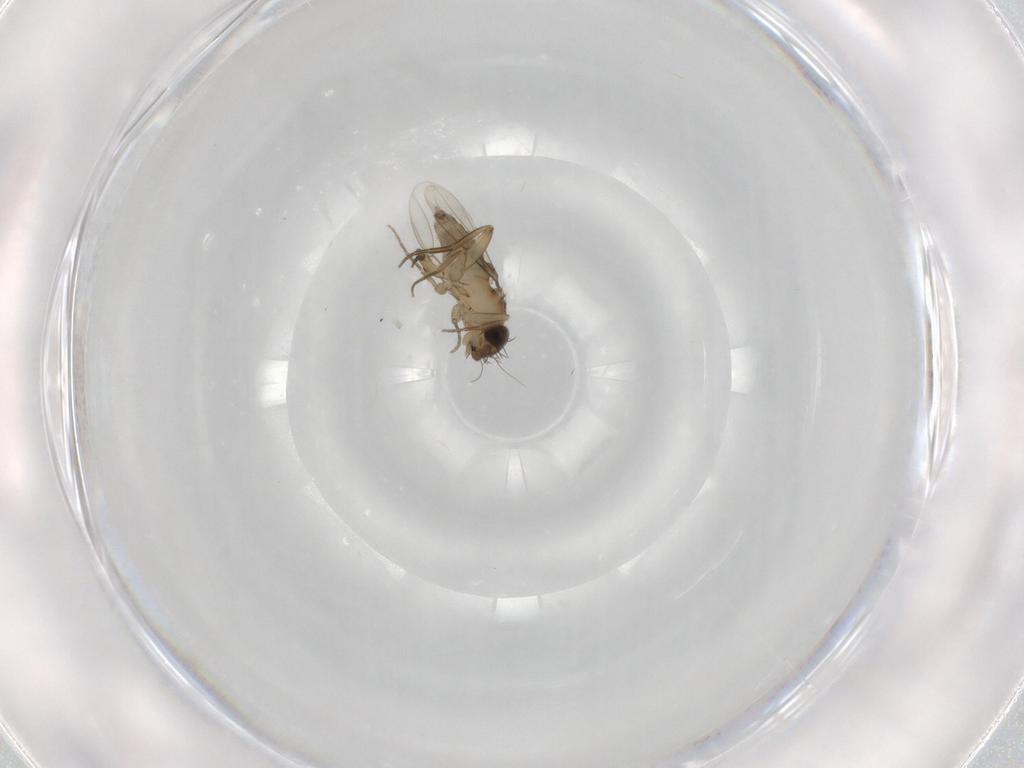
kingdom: Animalia
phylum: Arthropoda
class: Insecta
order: Diptera
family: Phoridae
